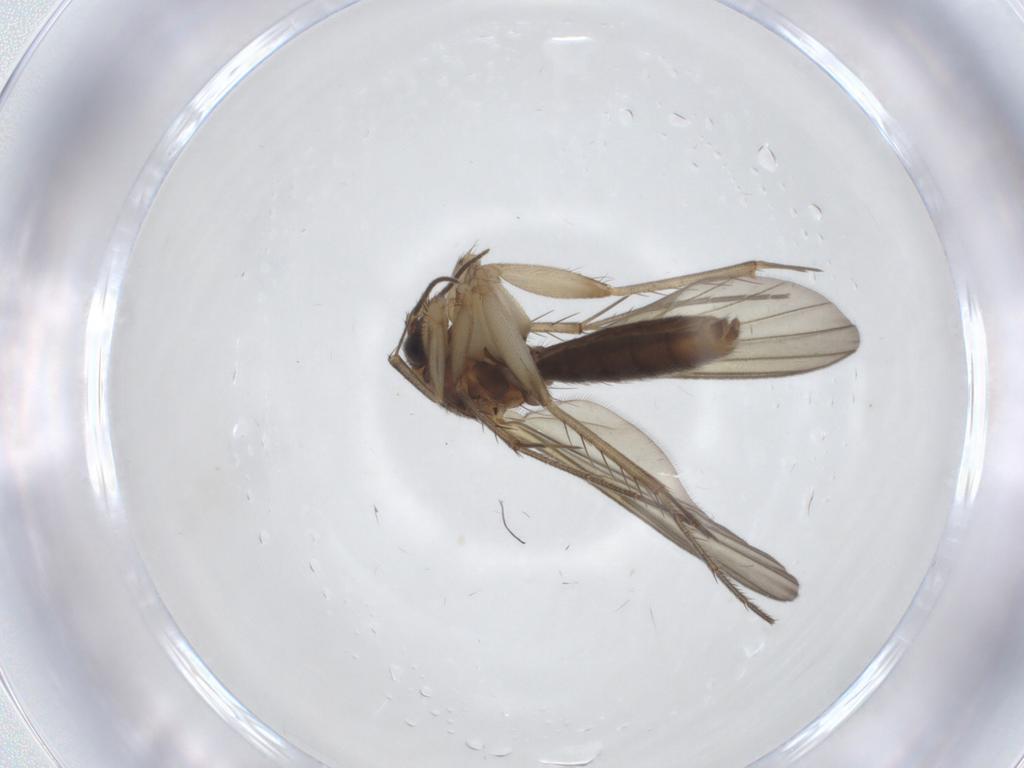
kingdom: Animalia
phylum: Arthropoda
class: Insecta
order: Diptera
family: Mycetophilidae
